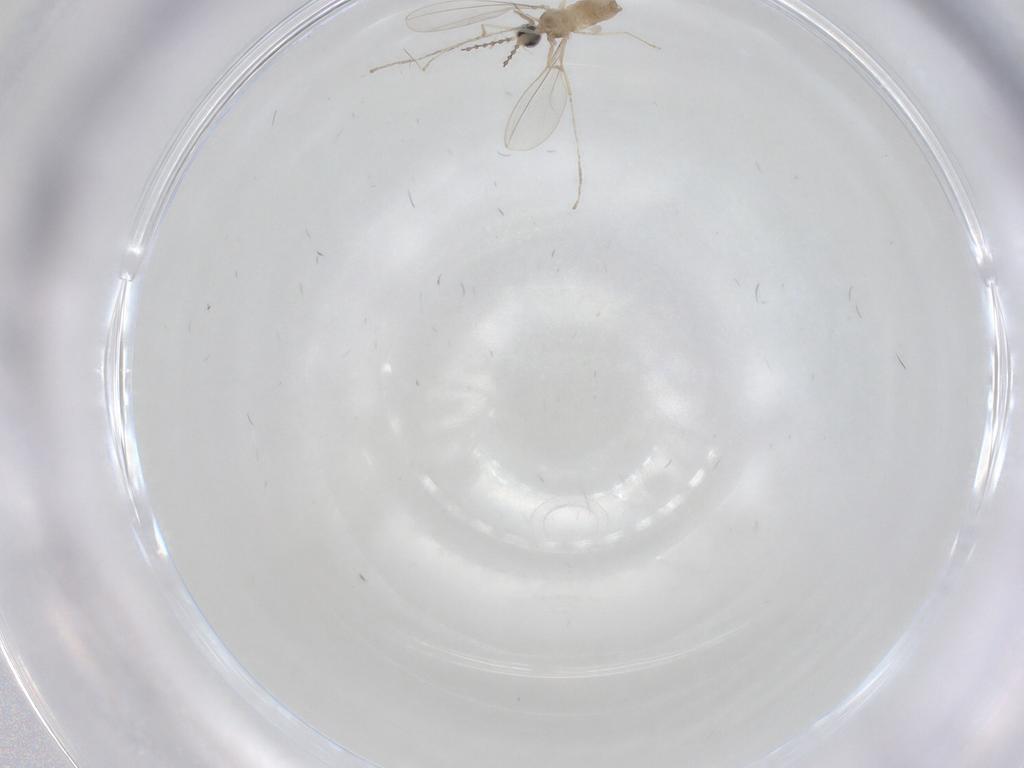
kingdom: Animalia
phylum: Arthropoda
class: Insecta
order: Diptera
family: Cecidomyiidae
